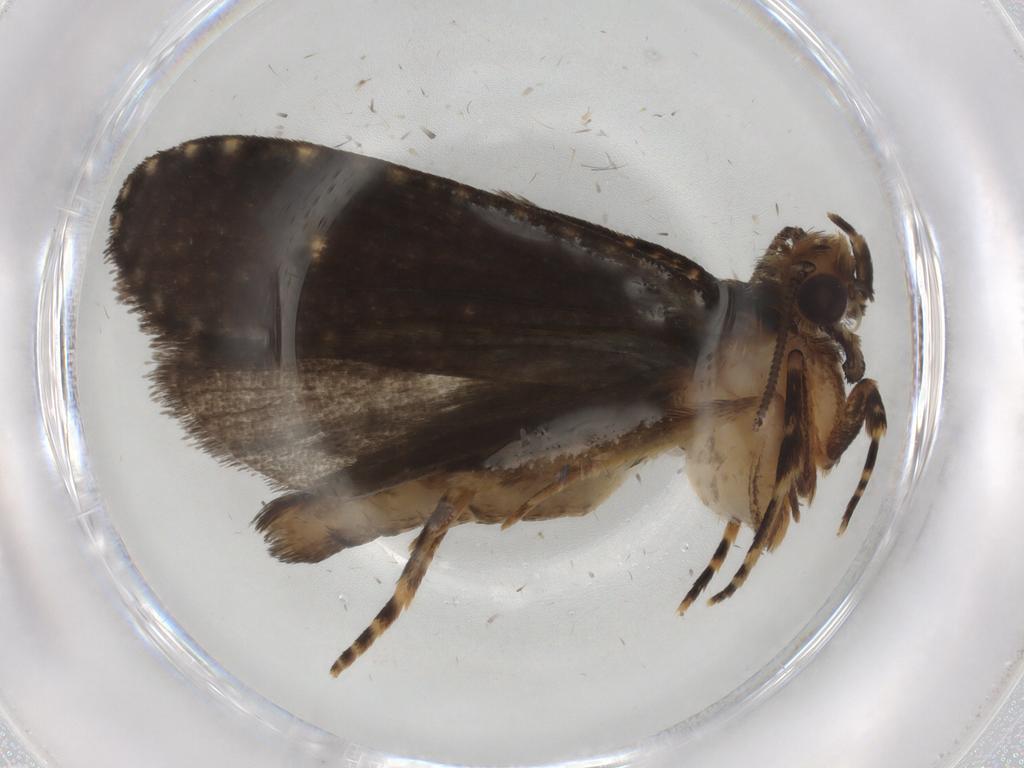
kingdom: Animalia
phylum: Arthropoda
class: Insecta
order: Lepidoptera
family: Tineidae
